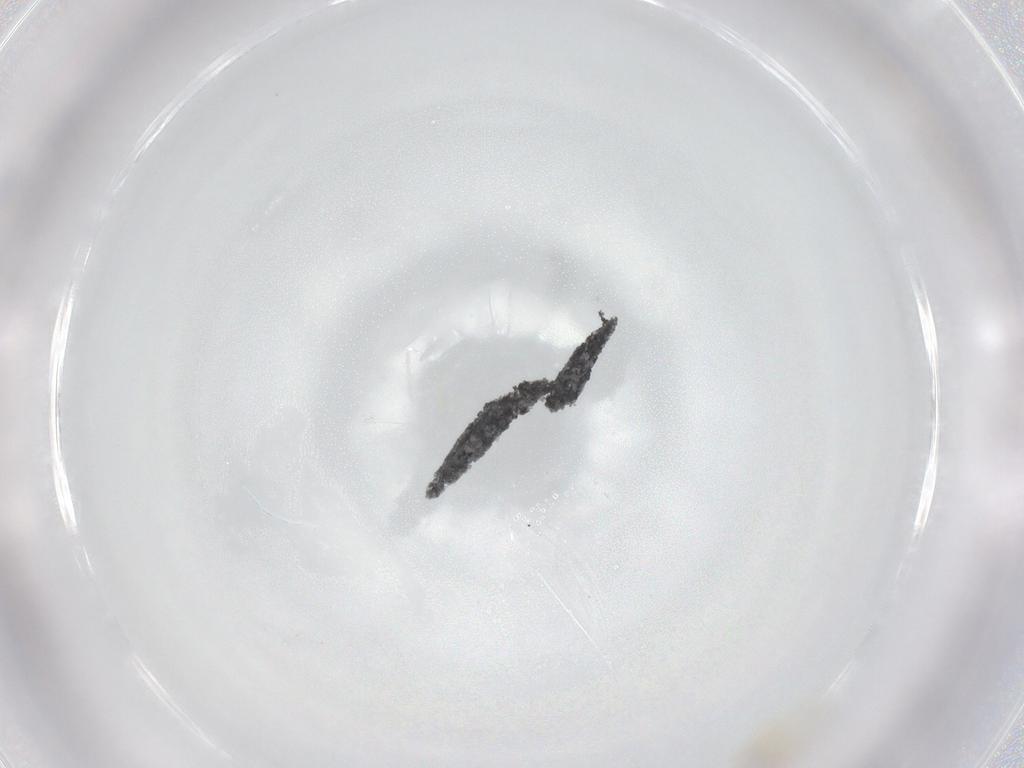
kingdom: Animalia
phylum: Arthropoda
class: Insecta
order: Diptera
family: Cecidomyiidae
